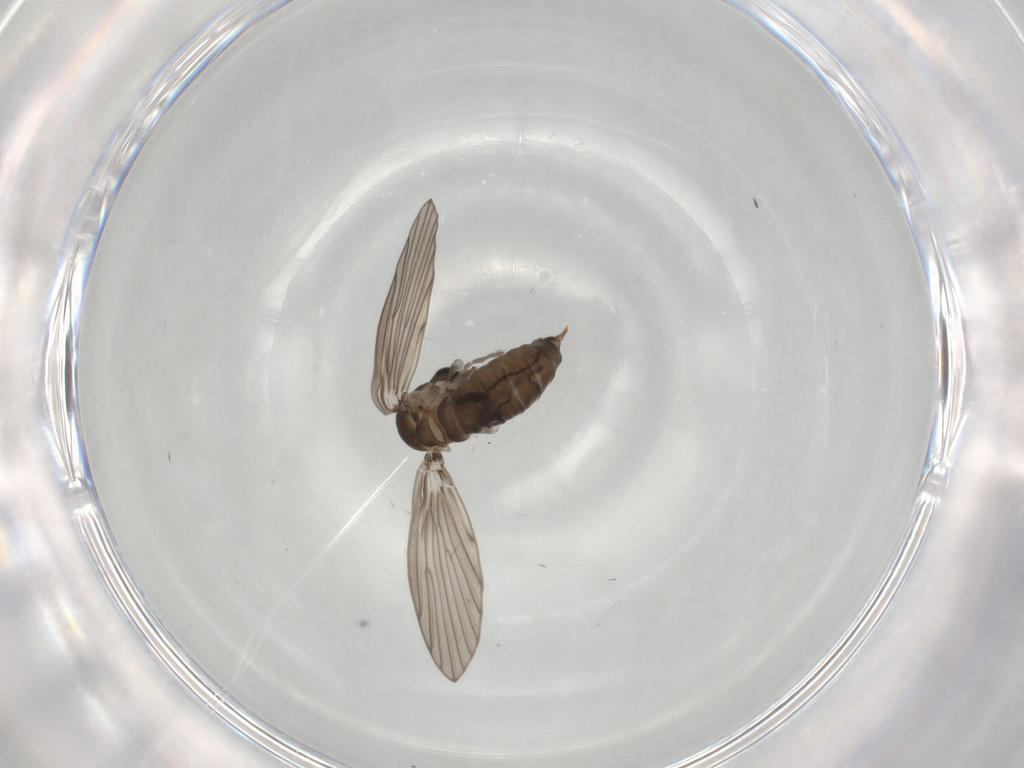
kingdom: Animalia
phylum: Arthropoda
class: Insecta
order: Diptera
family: Psychodidae
